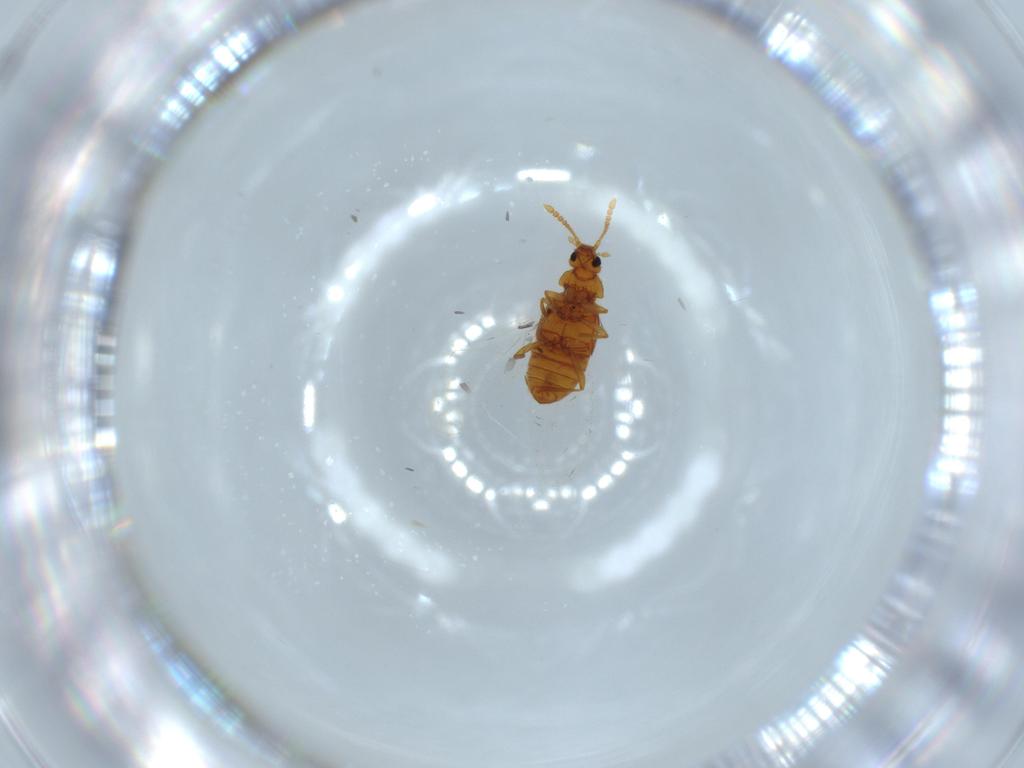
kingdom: Animalia
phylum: Arthropoda
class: Insecta
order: Coleoptera
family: Staphylinidae
